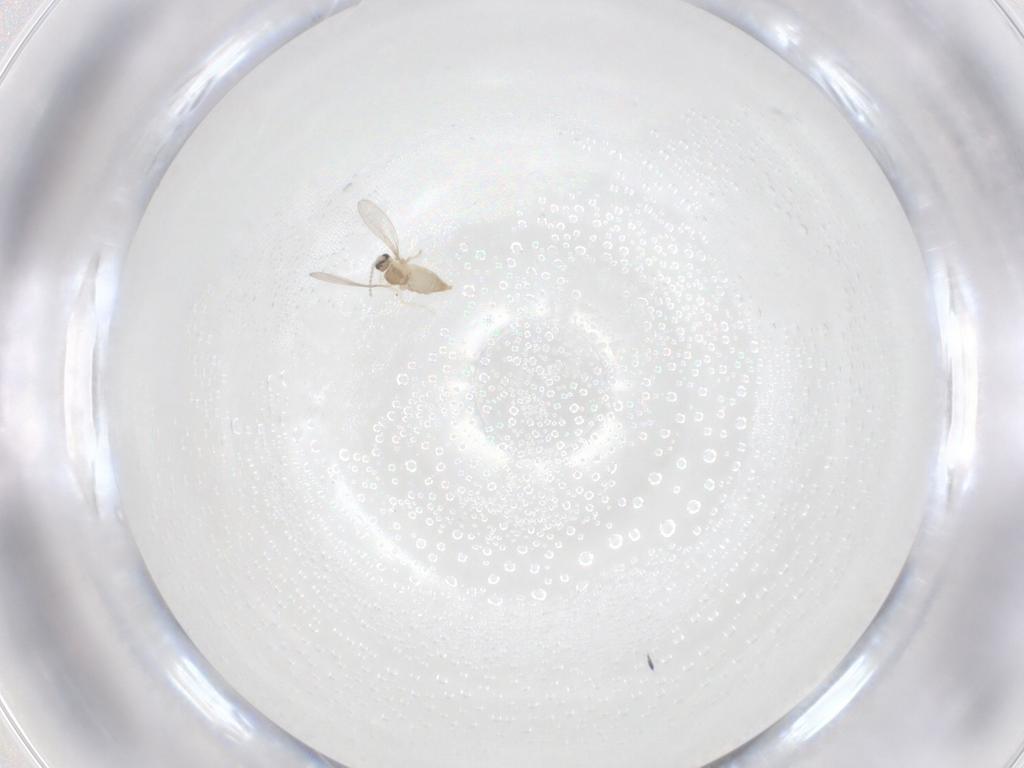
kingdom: Animalia
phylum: Arthropoda
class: Insecta
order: Diptera
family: Cecidomyiidae
